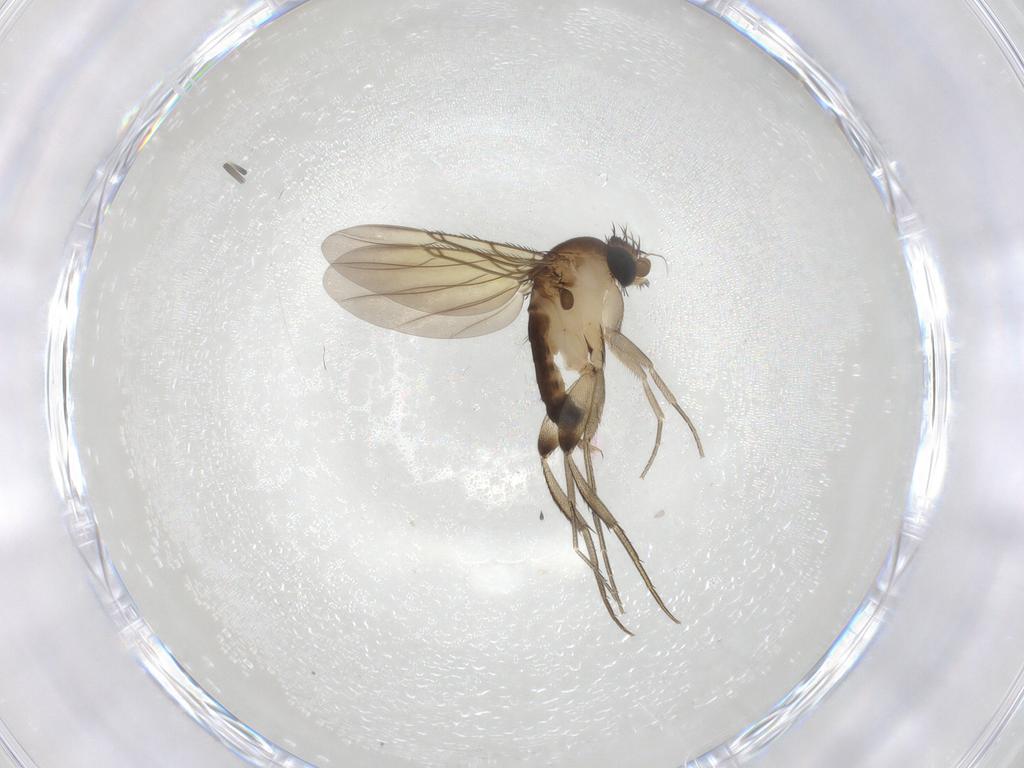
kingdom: Animalia
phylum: Arthropoda
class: Insecta
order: Diptera
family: Phoridae
